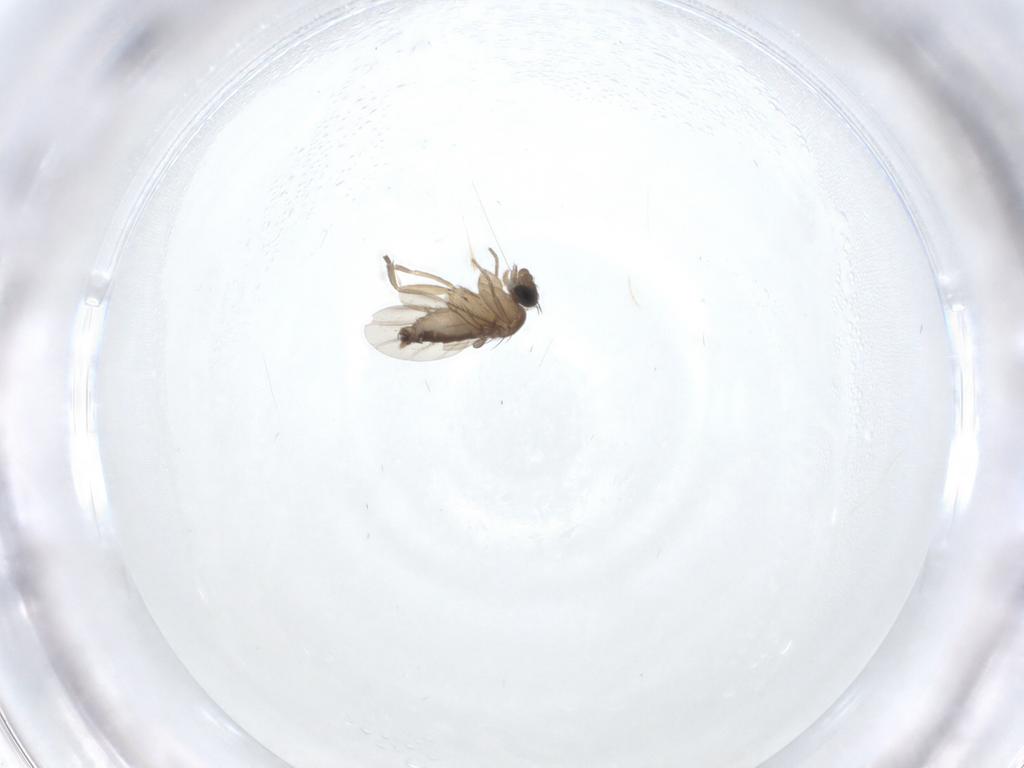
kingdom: Animalia
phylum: Arthropoda
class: Insecta
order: Diptera
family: Phoridae
